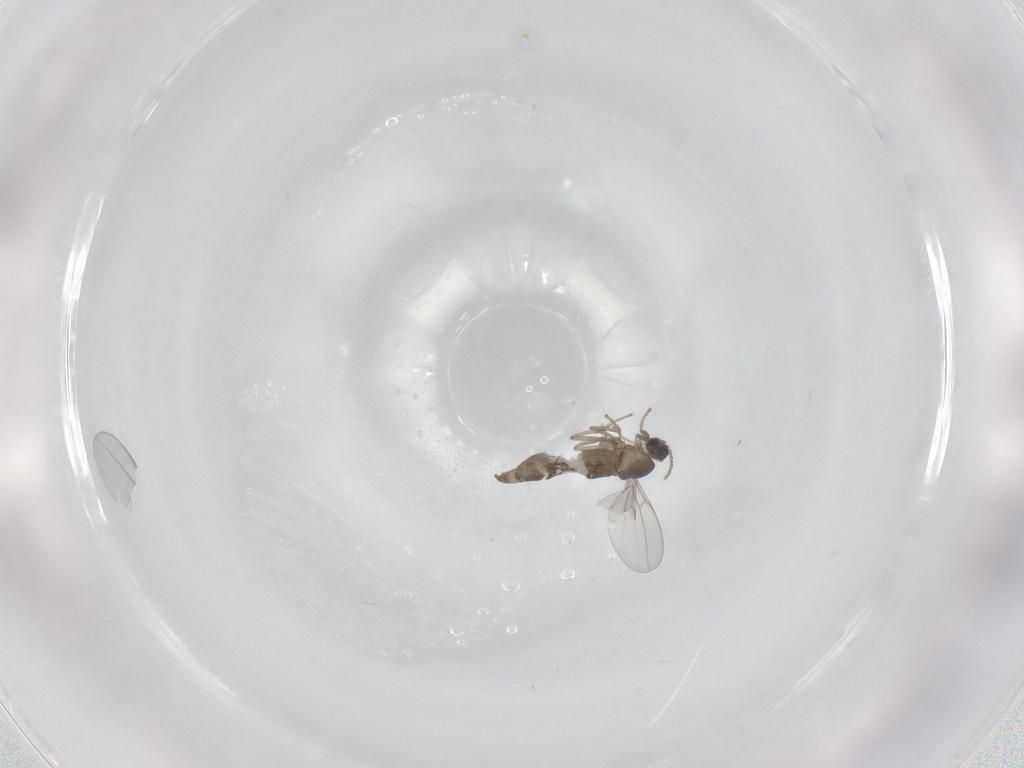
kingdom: Animalia
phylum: Arthropoda
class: Insecta
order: Diptera
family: Cecidomyiidae
